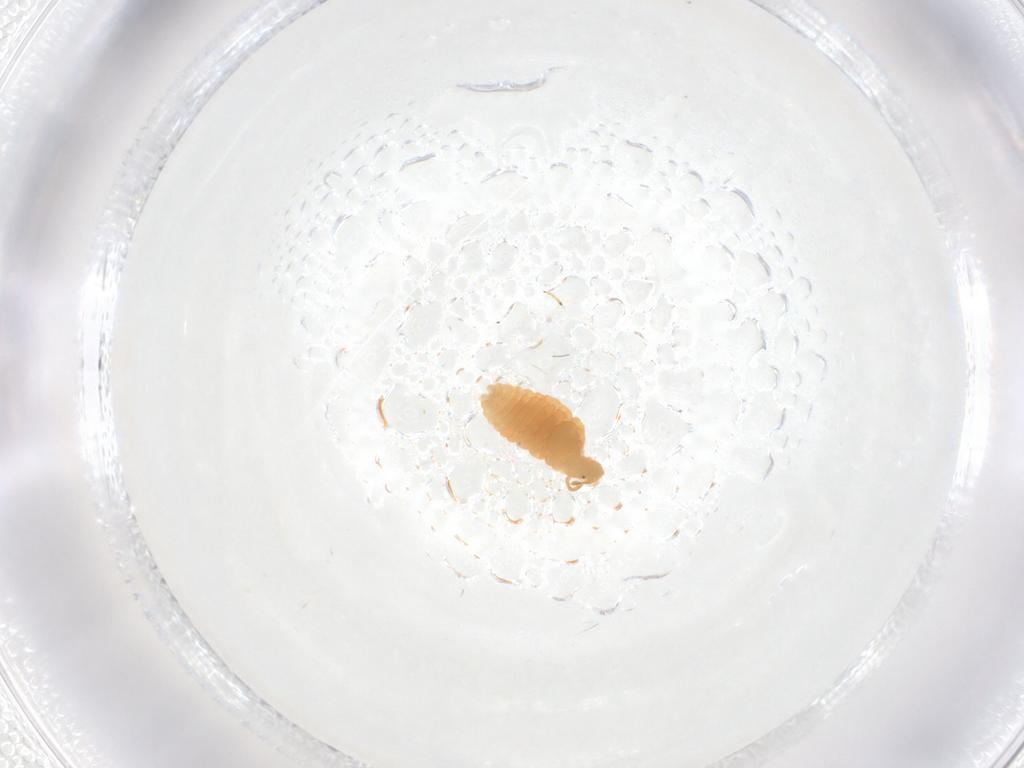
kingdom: Animalia
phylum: Arthropoda
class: Insecta
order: Thysanoptera
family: Thripidae
